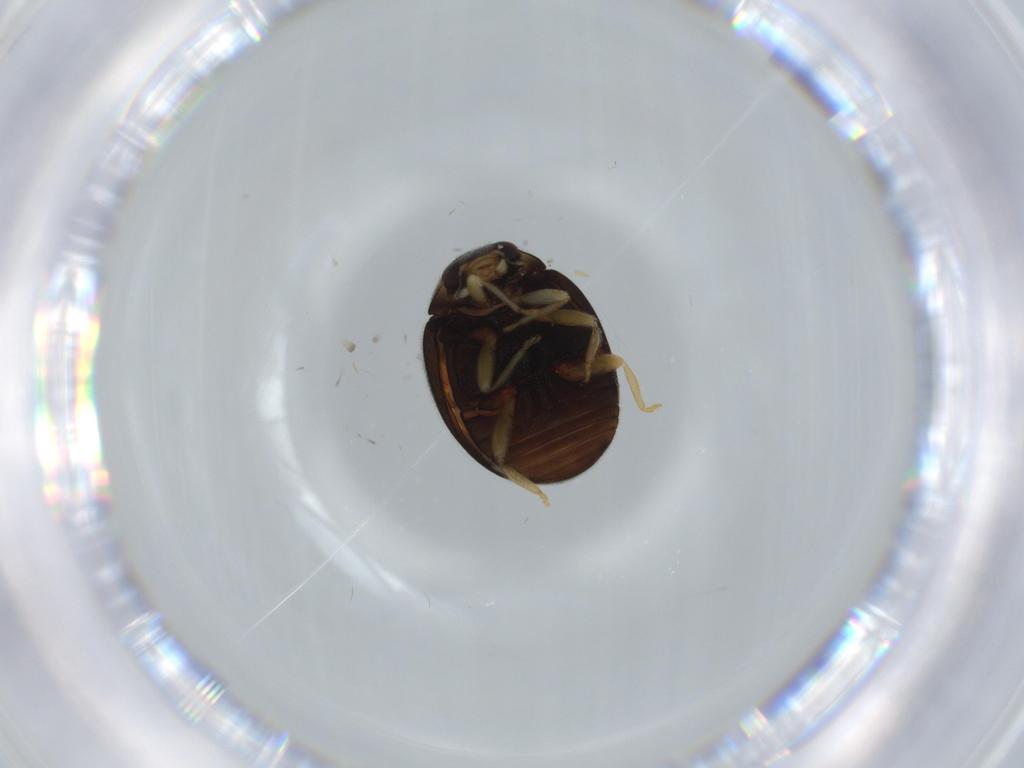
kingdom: Animalia
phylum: Arthropoda
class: Insecta
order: Coleoptera
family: Coccinellidae
